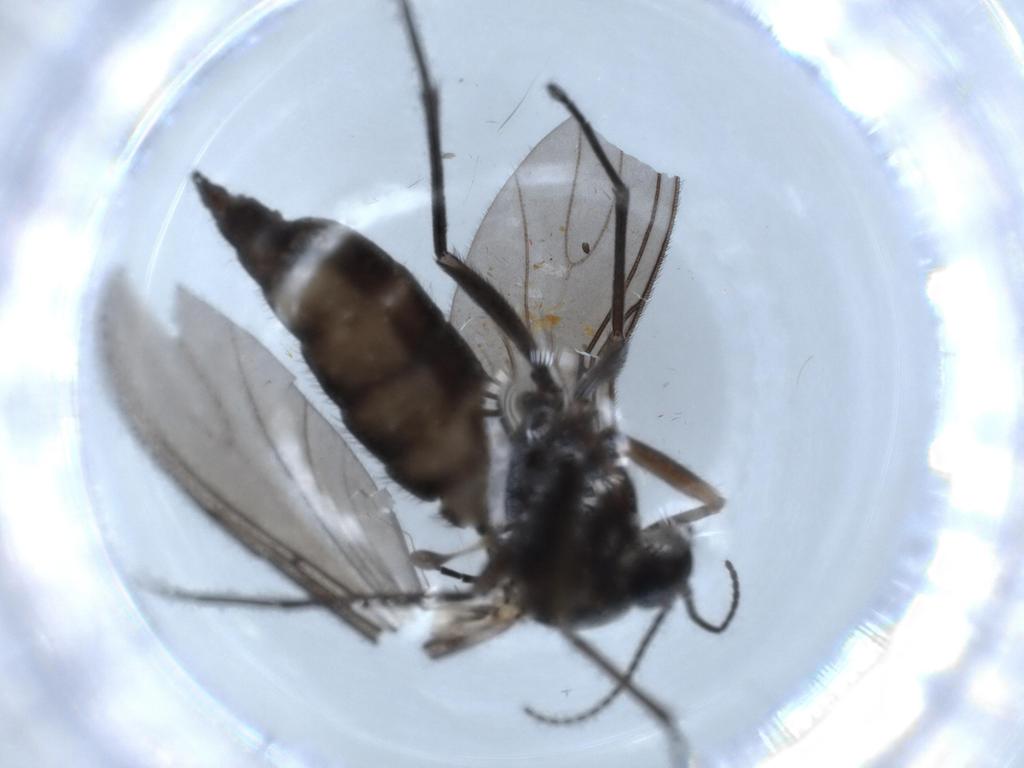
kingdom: Animalia
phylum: Arthropoda
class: Insecta
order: Diptera
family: Sciaridae
